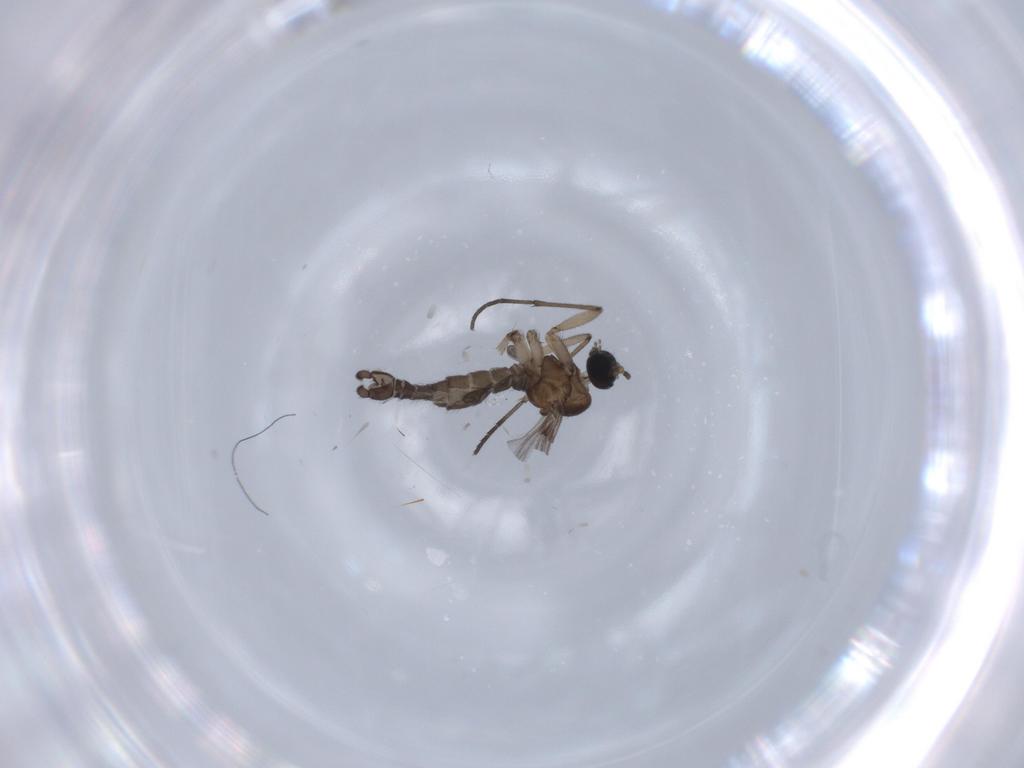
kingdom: Animalia
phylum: Arthropoda
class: Insecta
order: Diptera
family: Sciaridae
